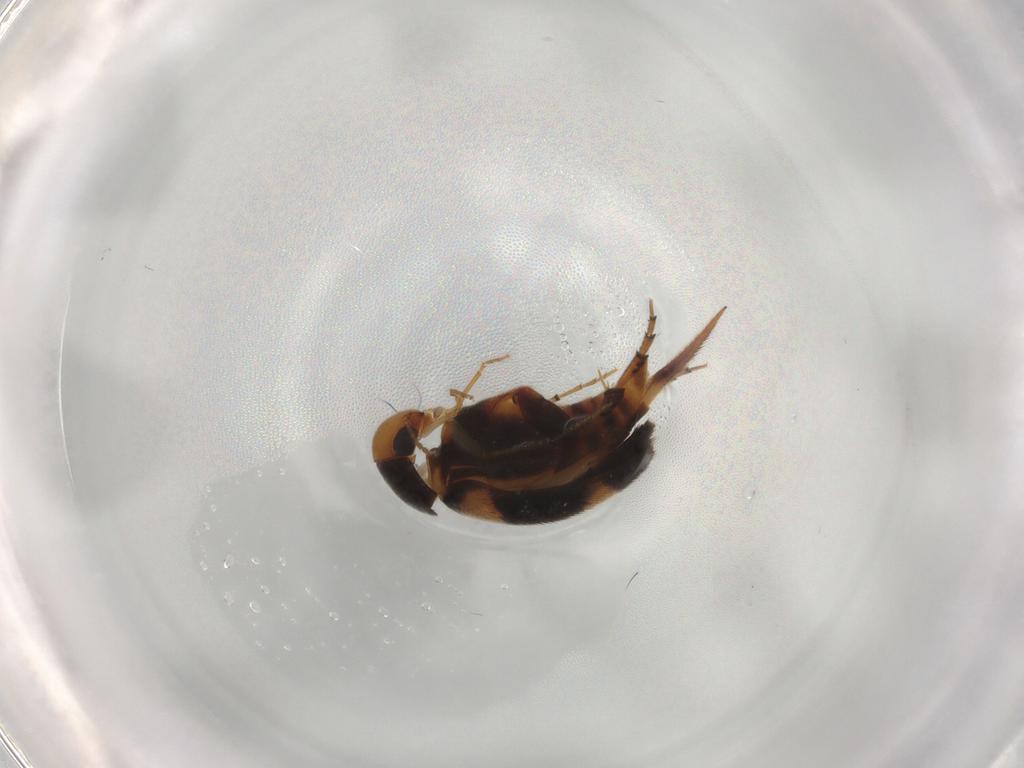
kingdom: Animalia
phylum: Arthropoda
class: Insecta
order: Coleoptera
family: Mordellidae
